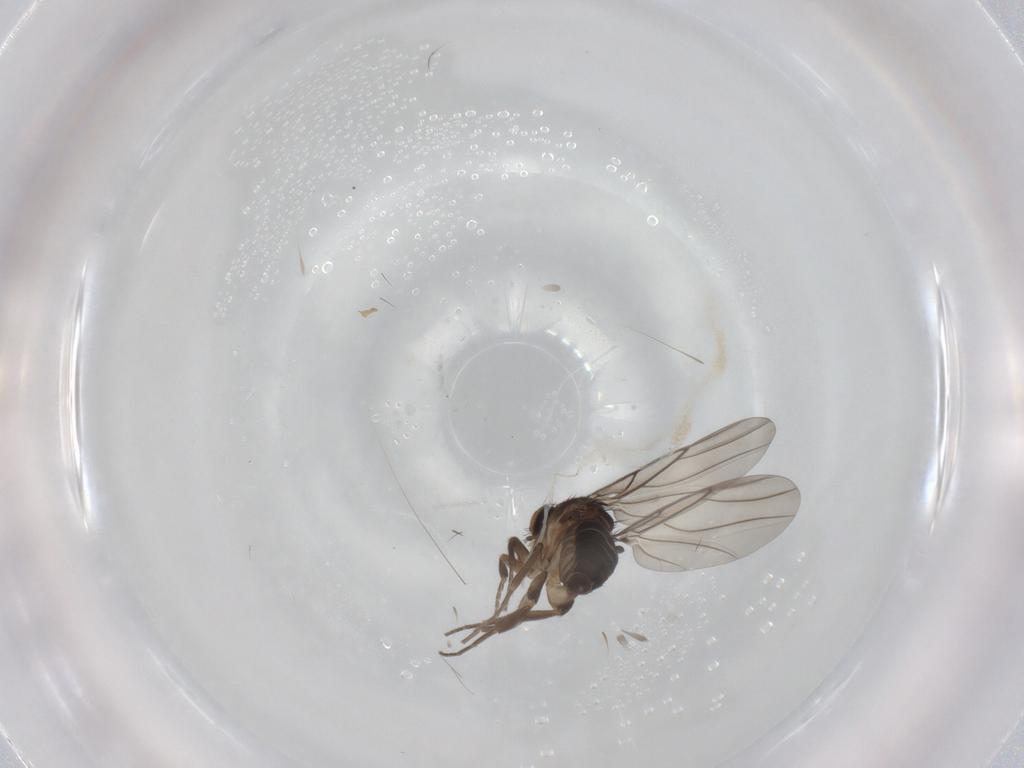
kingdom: Animalia
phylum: Arthropoda
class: Insecta
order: Diptera
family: Phoridae
